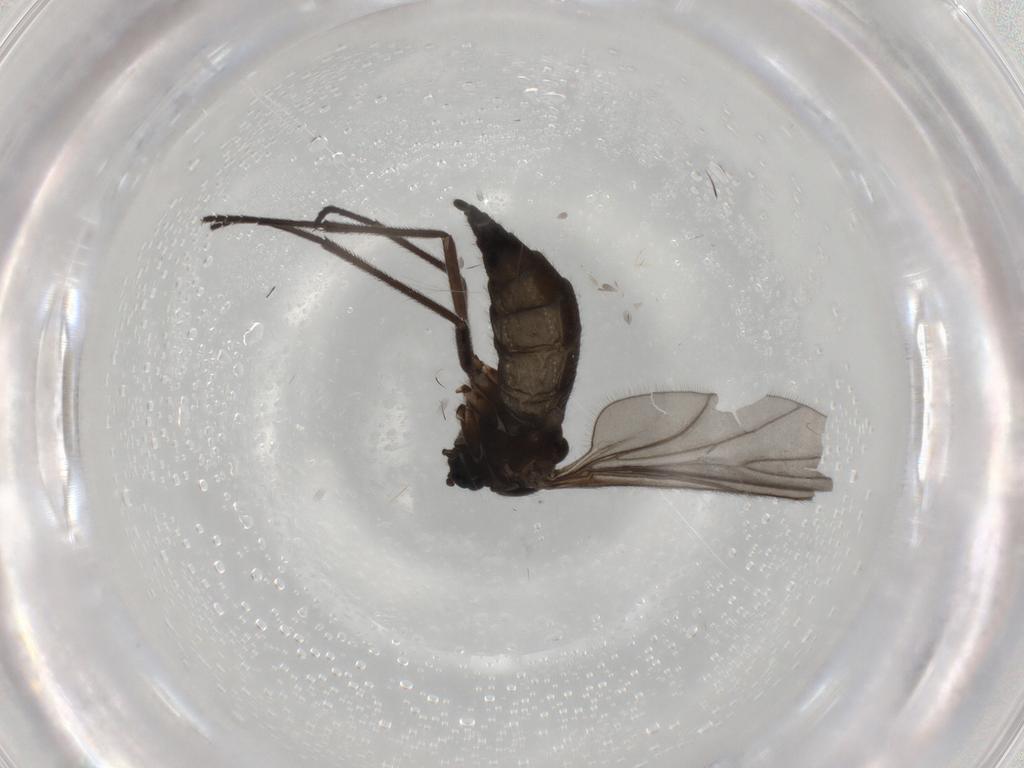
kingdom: Animalia
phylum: Arthropoda
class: Insecta
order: Diptera
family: Sciaridae
